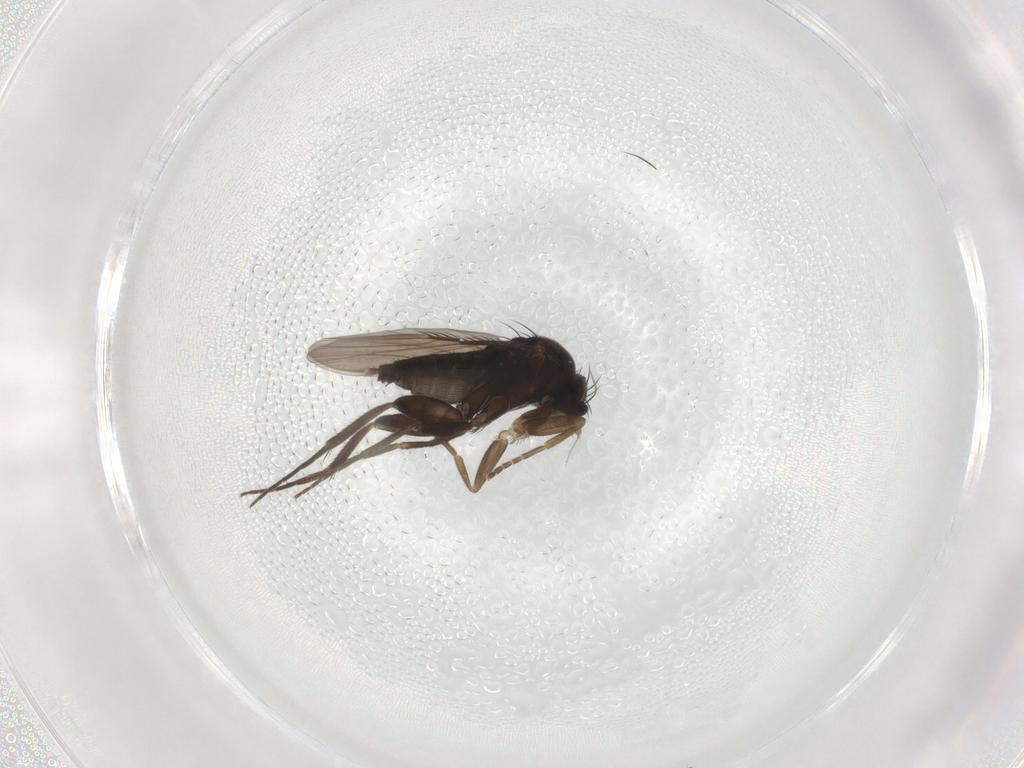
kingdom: Animalia
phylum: Arthropoda
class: Insecta
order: Diptera
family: Phoridae
